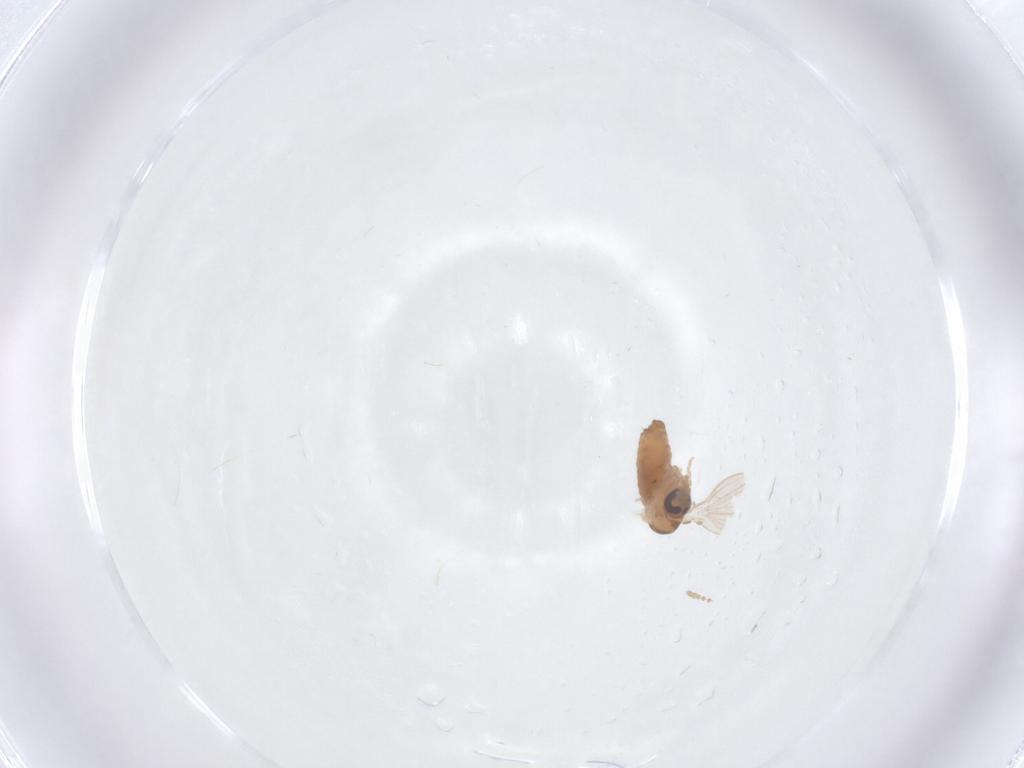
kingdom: Animalia
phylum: Arthropoda
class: Insecta
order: Diptera
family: Psychodidae
